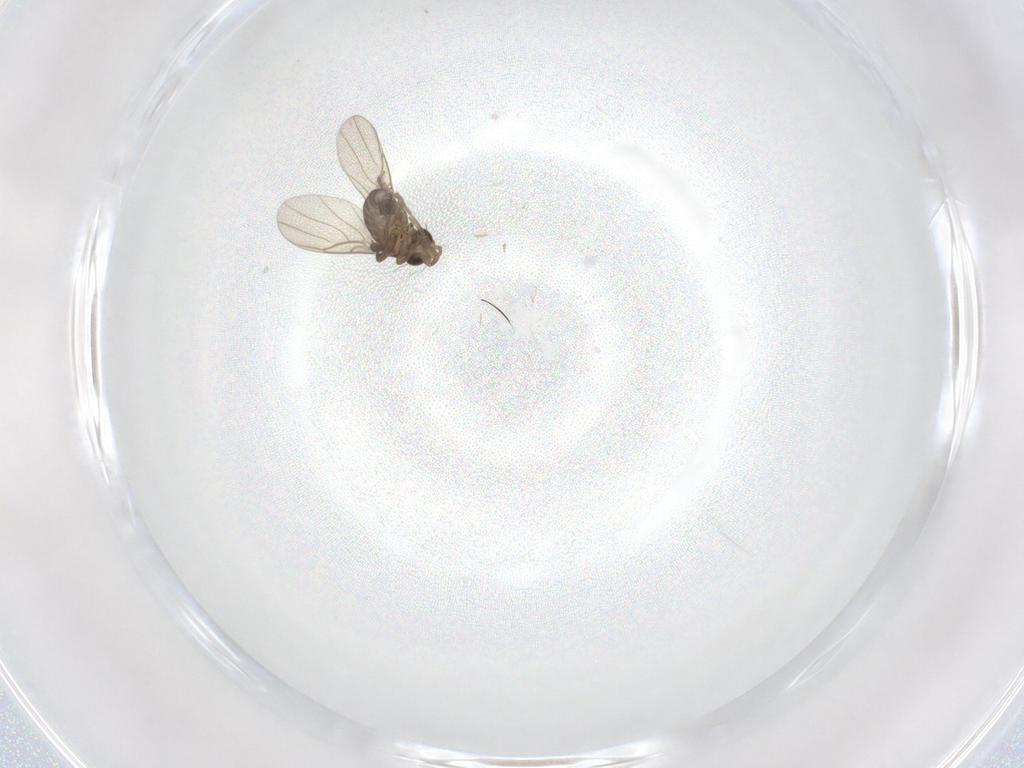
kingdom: Animalia
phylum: Arthropoda
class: Insecta
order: Diptera
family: Phoridae
